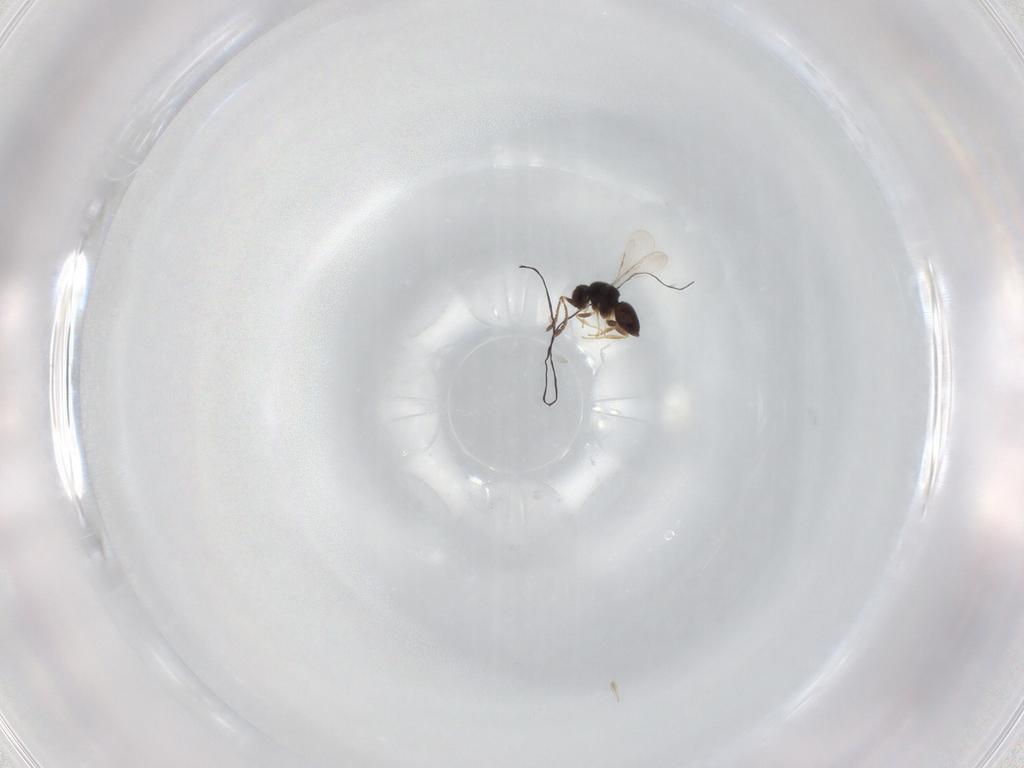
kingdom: Animalia
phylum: Arthropoda
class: Insecta
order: Hymenoptera
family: Braconidae
